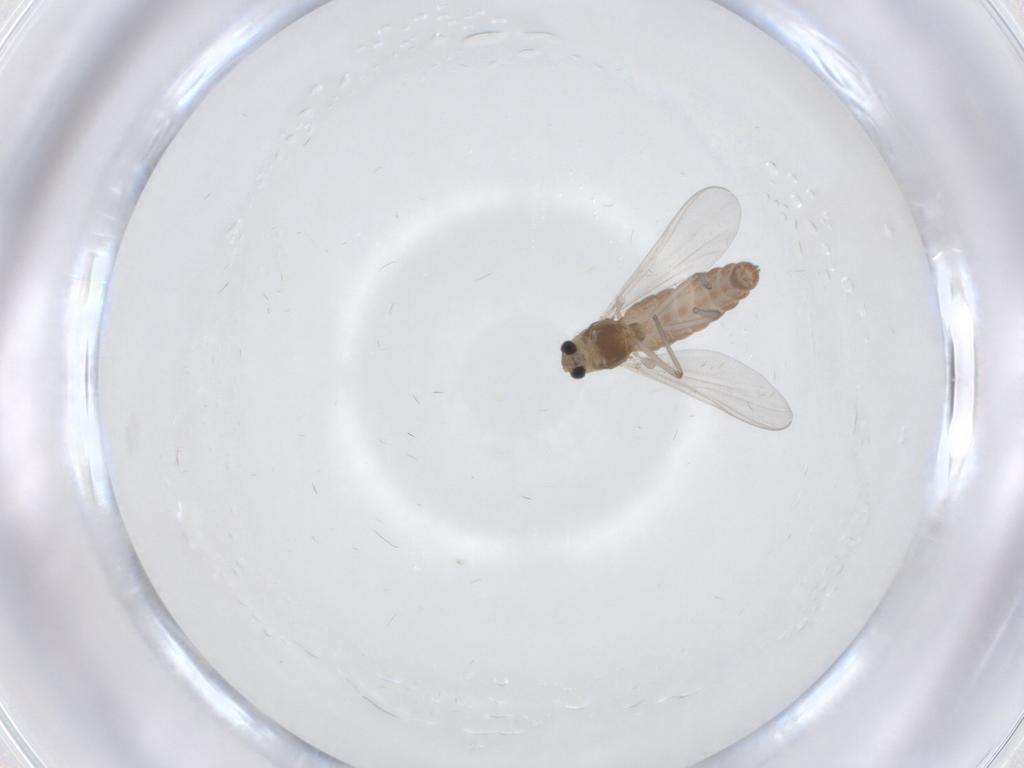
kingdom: Animalia
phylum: Arthropoda
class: Insecta
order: Diptera
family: Chironomidae
